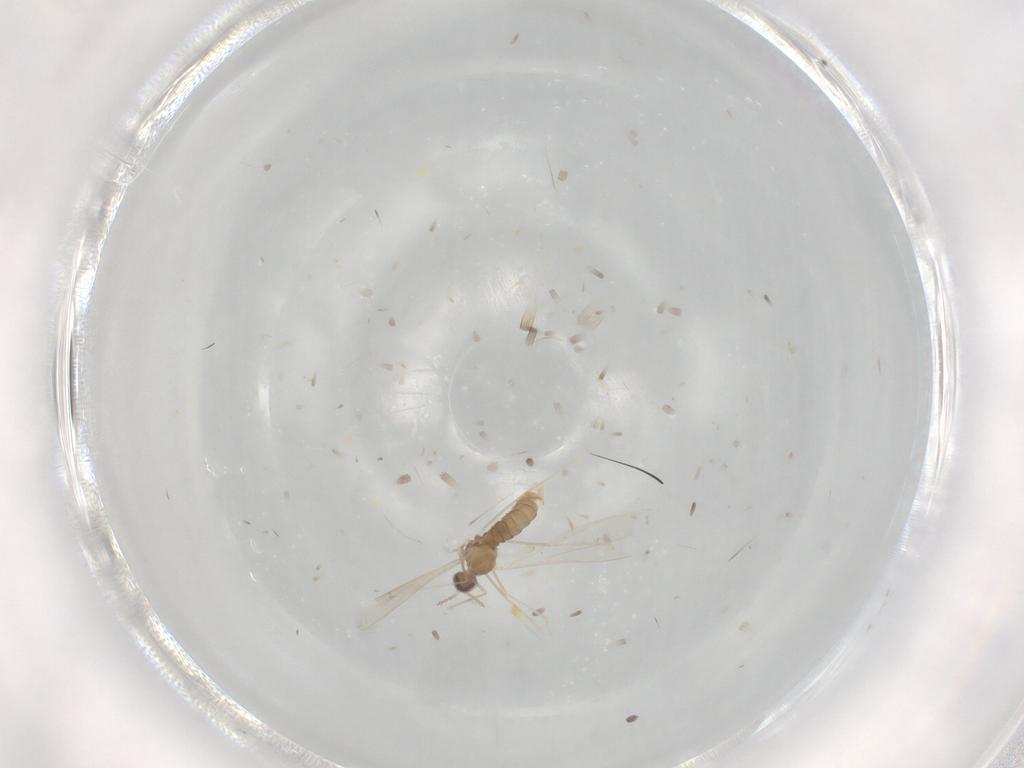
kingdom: Animalia
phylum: Arthropoda
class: Insecta
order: Diptera
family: Cecidomyiidae
